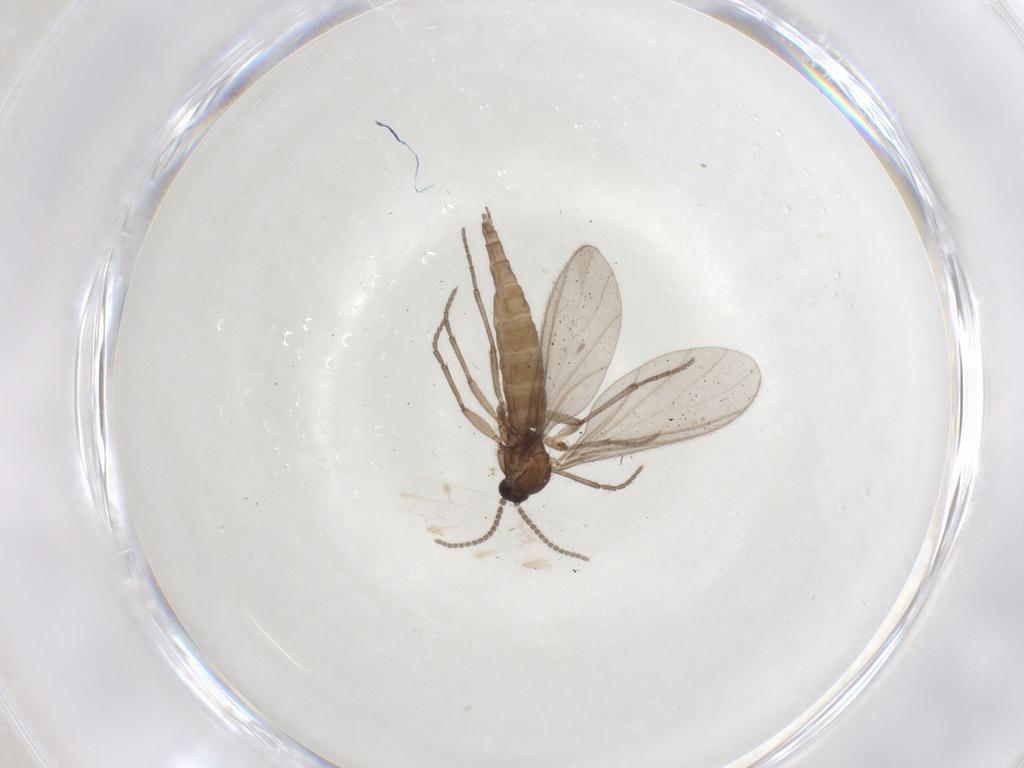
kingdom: Animalia
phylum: Arthropoda
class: Insecta
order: Diptera
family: Sciaridae
